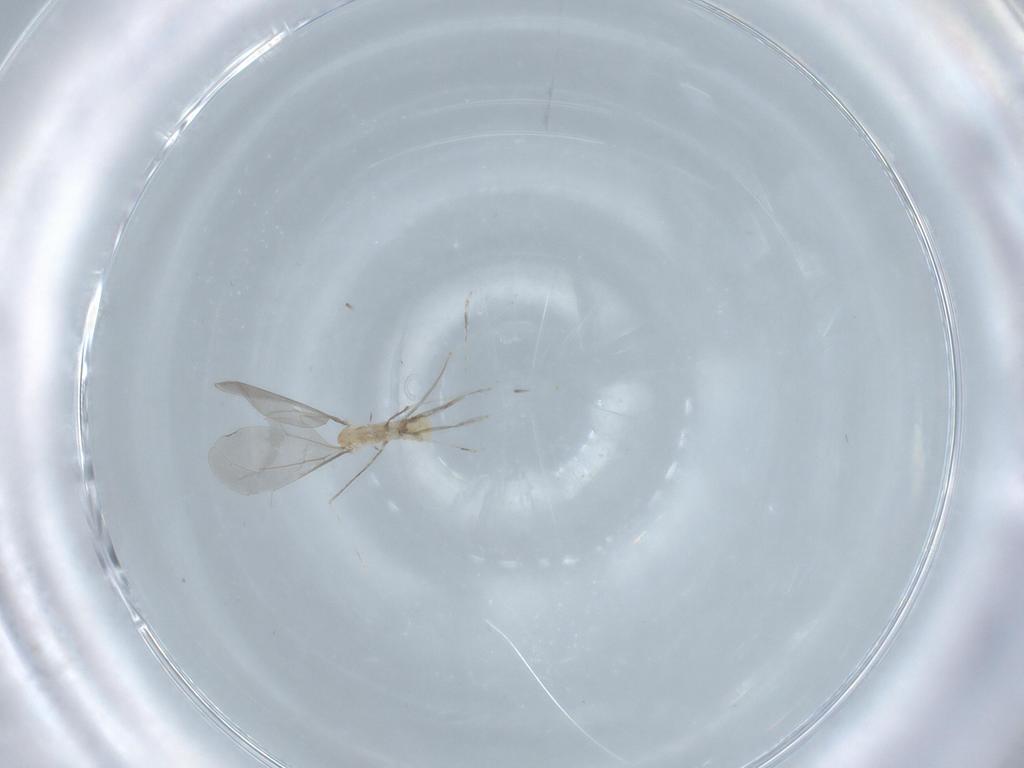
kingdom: Animalia
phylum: Arthropoda
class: Insecta
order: Diptera
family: Cecidomyiidae
